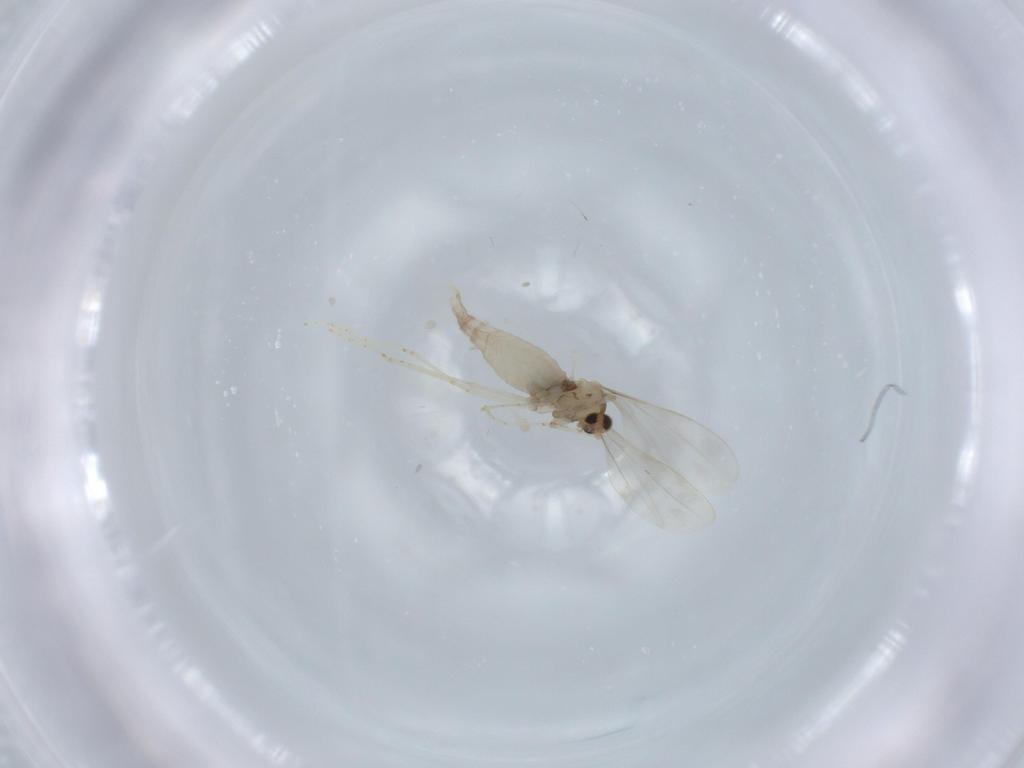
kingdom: Animalia
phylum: Arthropoda
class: Insecta
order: Diptera
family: Cecidomyiidae
